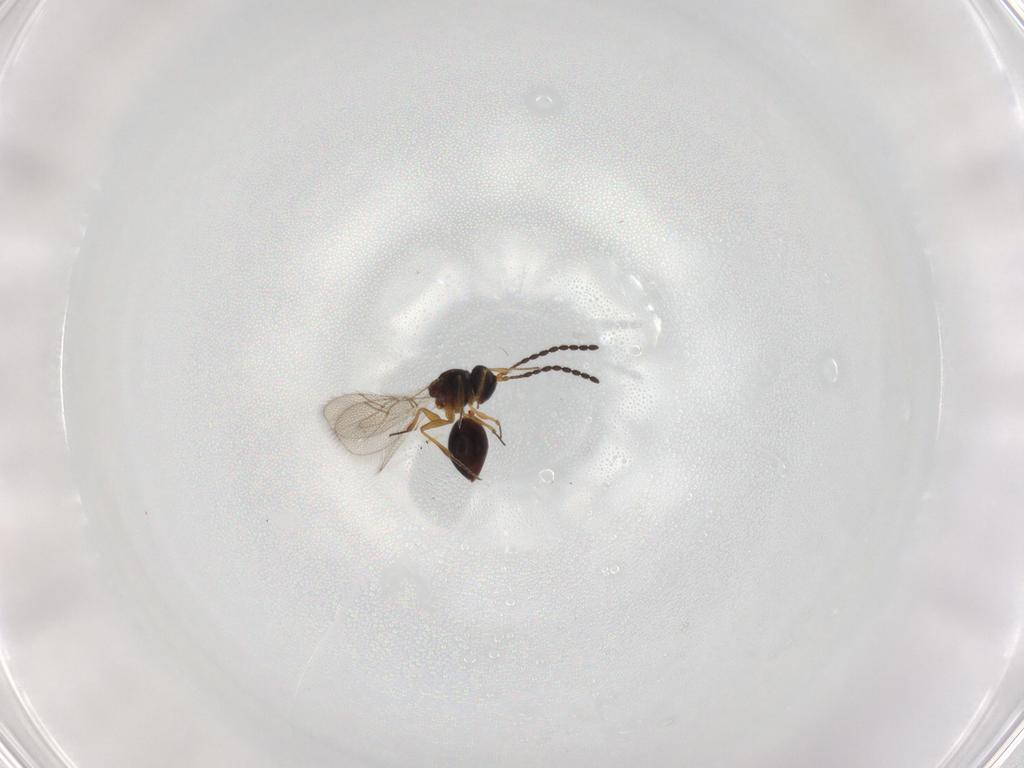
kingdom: Animalia
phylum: Arthropoda
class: Insecta
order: Hymenoptera
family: Figitidae
